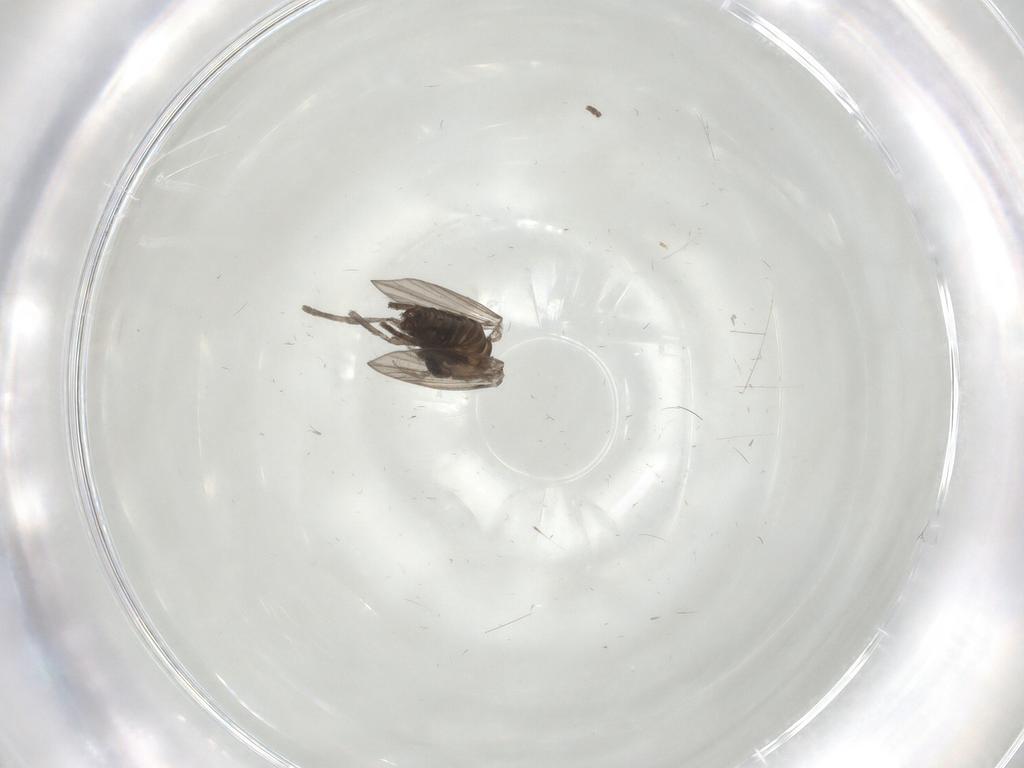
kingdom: Animalia
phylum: Arthropoda
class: Insecta
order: Diptera
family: Psychodidae
